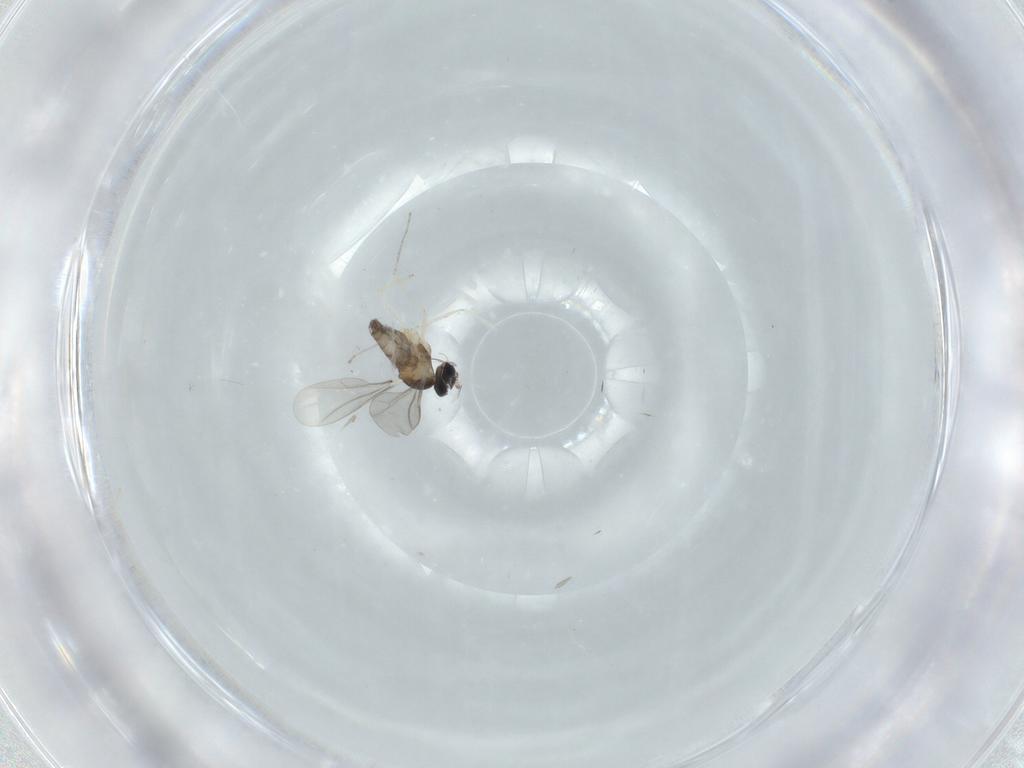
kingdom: Animalia
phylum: Arthropoda
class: Insecta
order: Diptera
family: Cecidomyiidae
